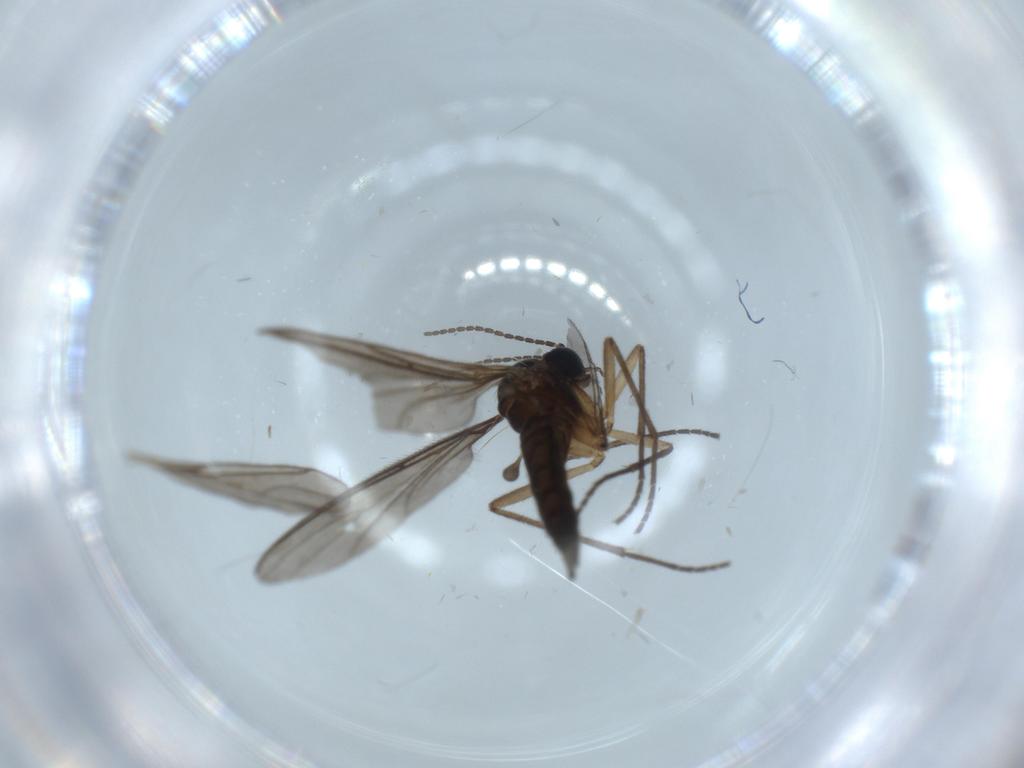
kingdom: Animalia
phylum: Arthropoda
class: Insecta
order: Diptera
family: Sciaridae
